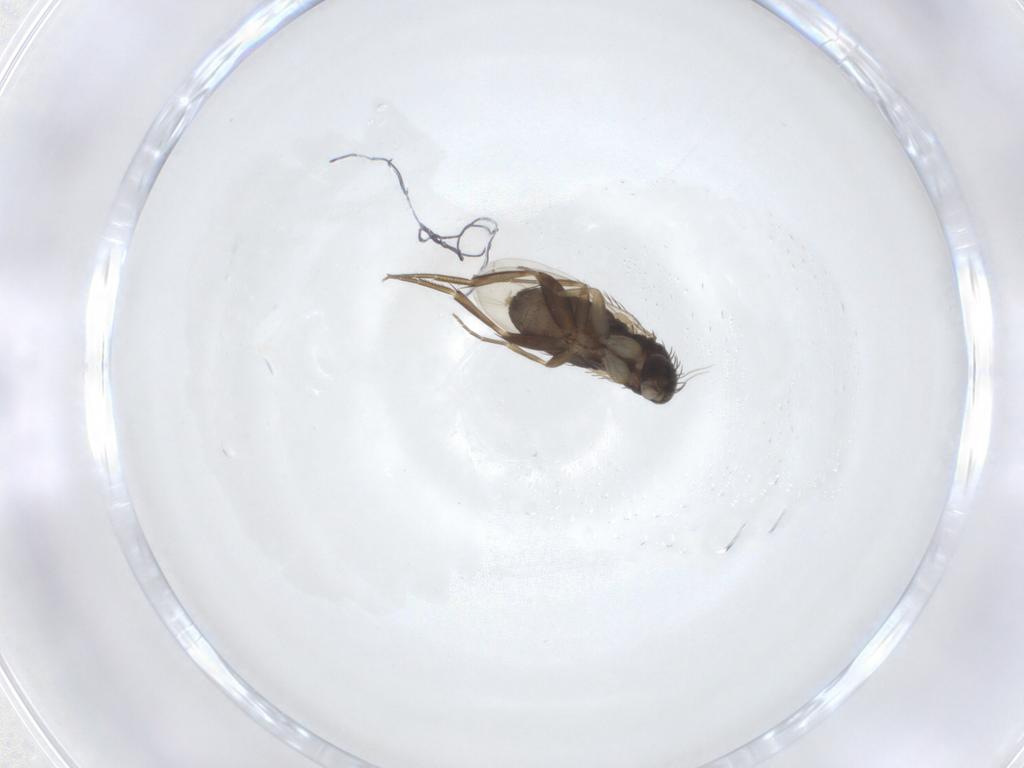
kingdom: Animalia
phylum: Arthropoda
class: Insecta
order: Diptera
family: Phoridae
